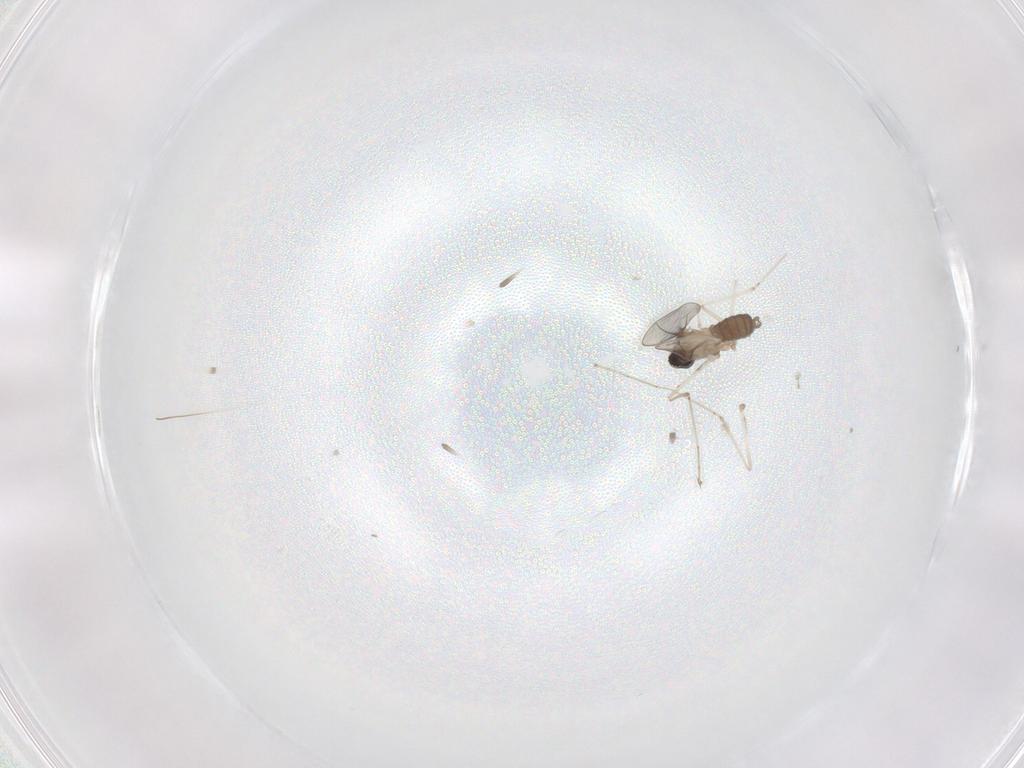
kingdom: Animalia
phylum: Arthropoda
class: Insecta
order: Diptera
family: Cecidomyiidae
